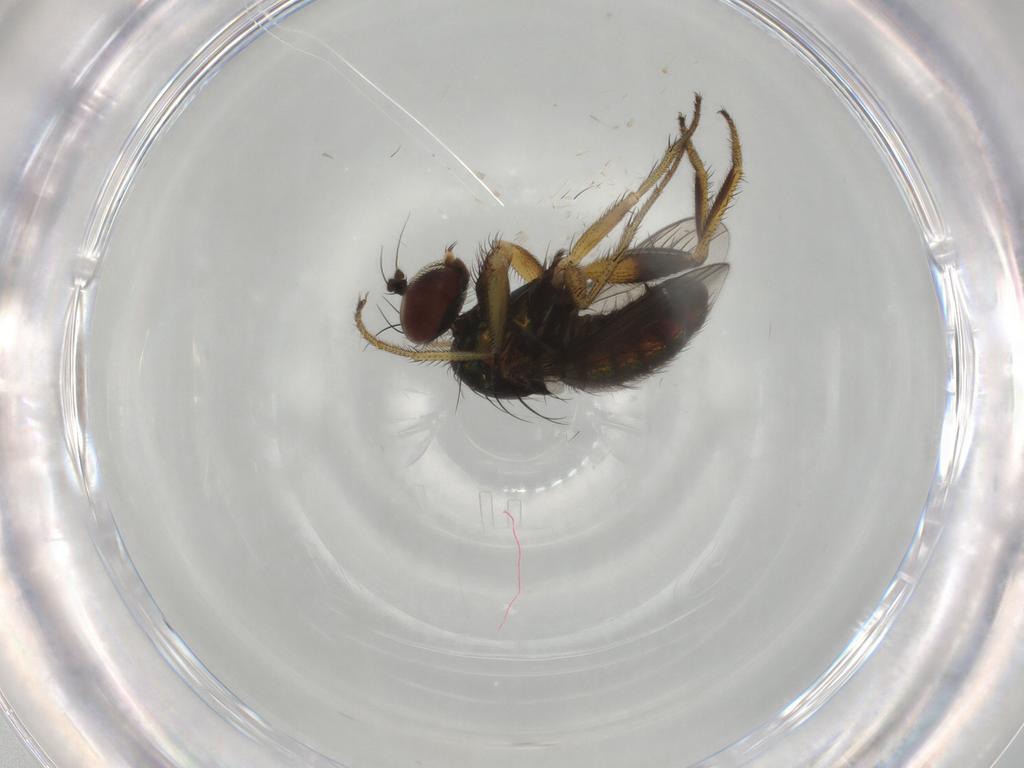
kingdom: Animalia
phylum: Arthropoda
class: Insecta
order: Diptera
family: Dolichopodidae
